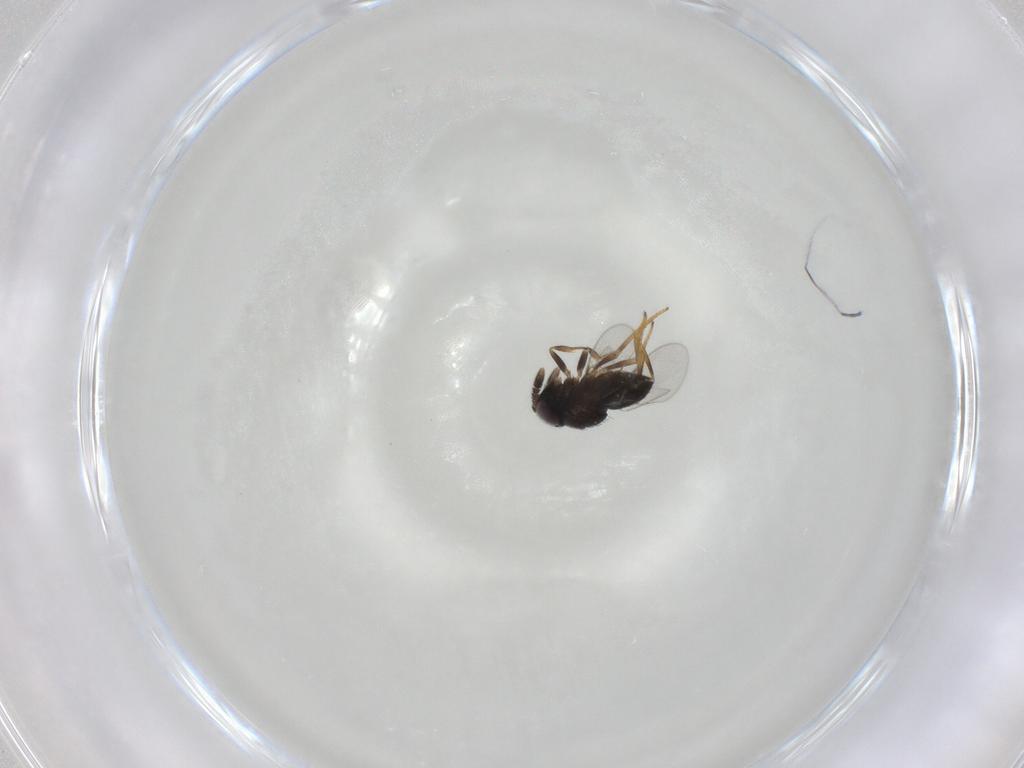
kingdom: Animalia
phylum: Arthropoda
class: Insecta
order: Hymenoptera
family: Encyrtidae
